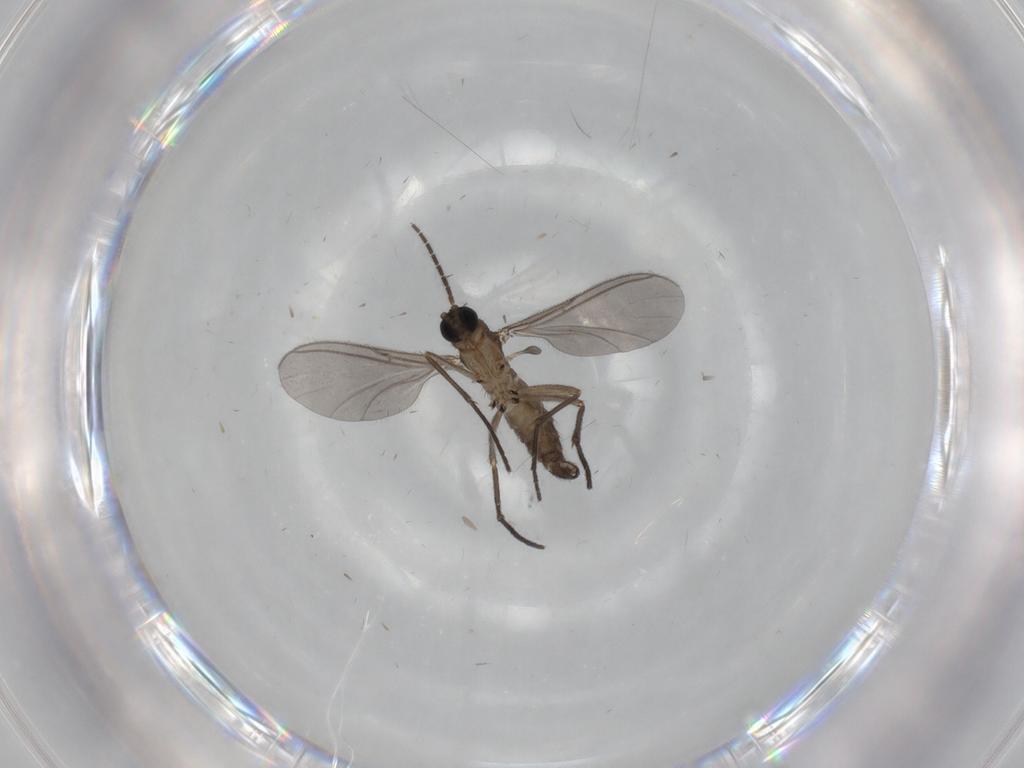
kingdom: Animalia
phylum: Arthropoda
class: Insecta
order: Diptera
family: Sciaridae
